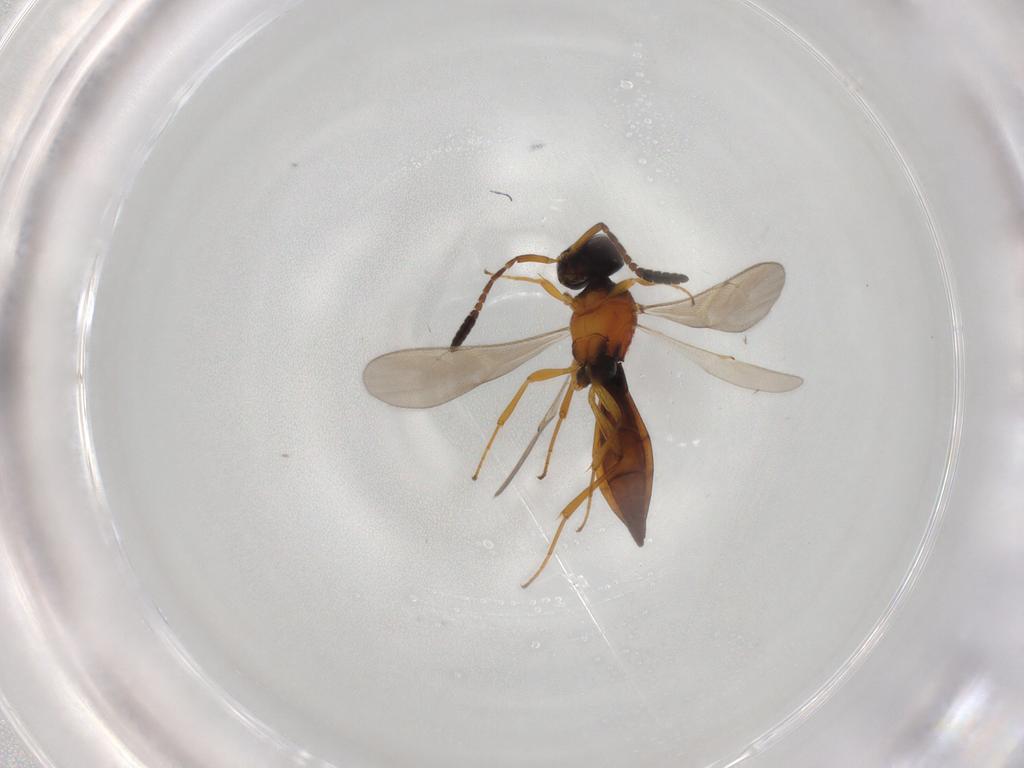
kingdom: Animalia
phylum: Arthropoda
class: Insecta
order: Hymenoptera
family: Scelionidae
